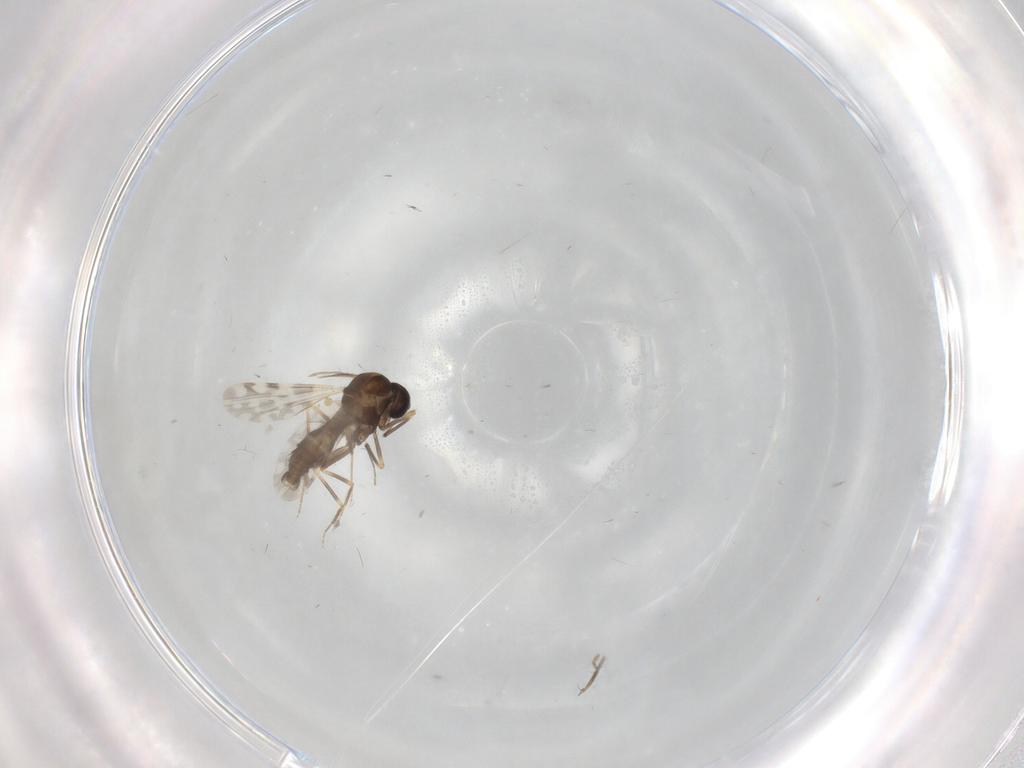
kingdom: Animalia
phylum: Arthropoda
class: Insecta
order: Diptera
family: Ceratopogonidae
